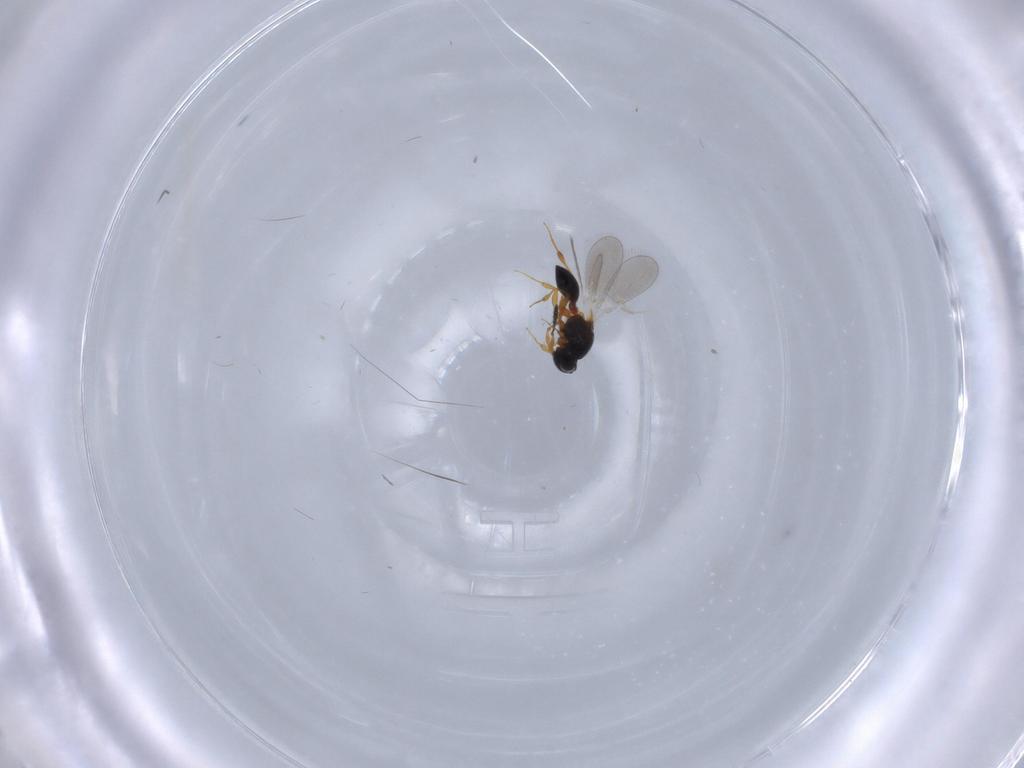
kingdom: Animalia
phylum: Arthropoda
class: Insecta
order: Hymenoptera
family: Platygastridae
